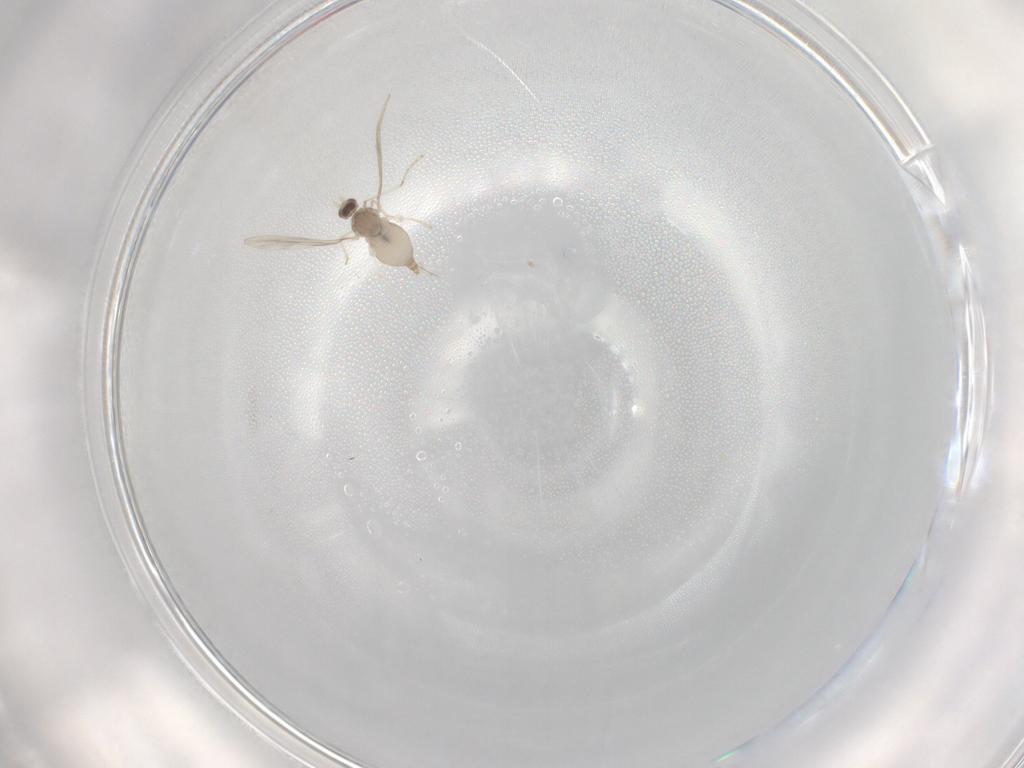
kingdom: Animalia
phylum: Arthropoda
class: Insecta
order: Diptera
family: Cecidomyiidae
